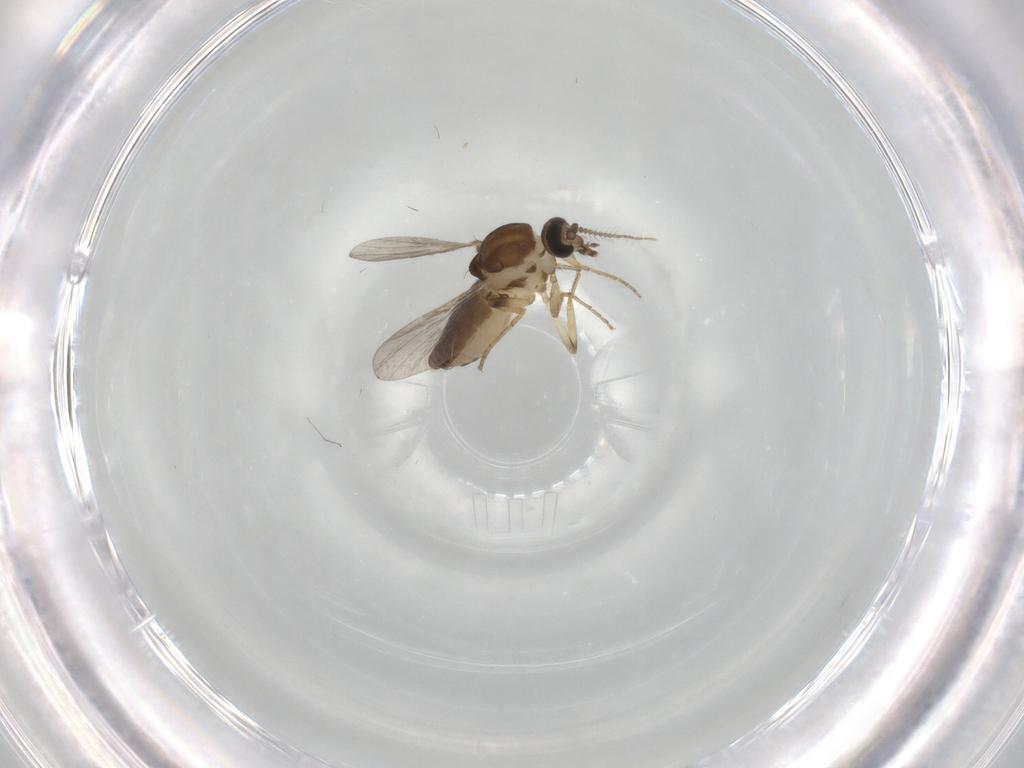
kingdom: Animalia
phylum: Arthropoda
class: Insecta
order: Diptera
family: Ceratopogonidae
